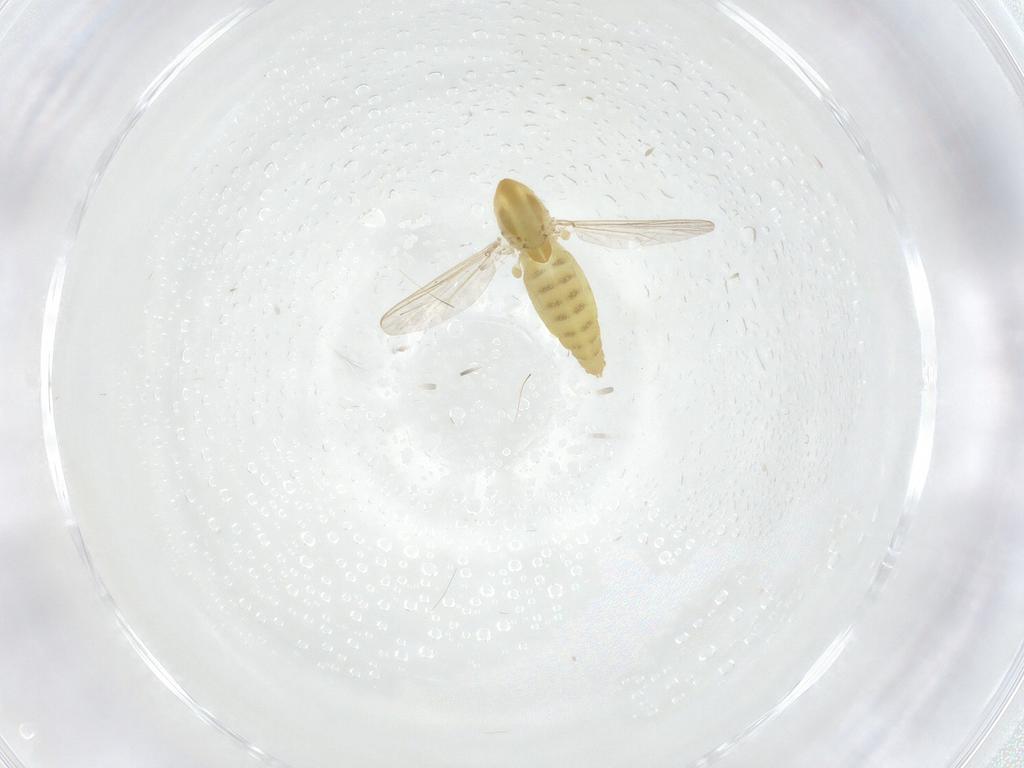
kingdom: Animalia
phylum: Arthropoda
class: Insecta
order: Diptera
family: Chironomidae
